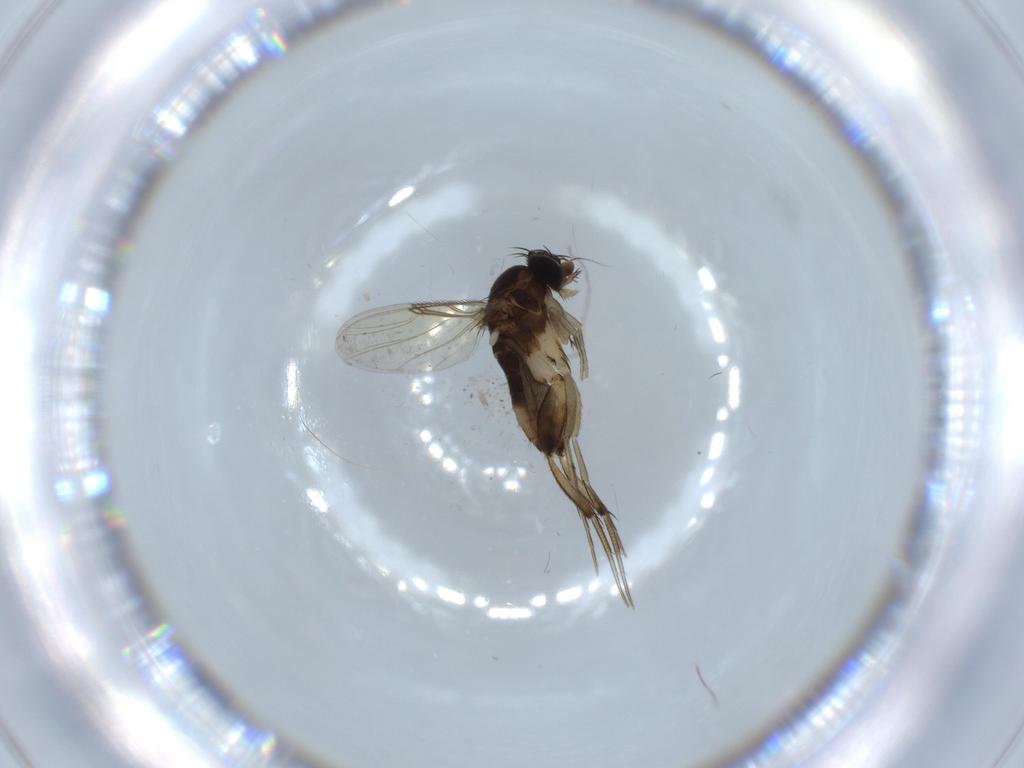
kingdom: Animalia
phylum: Arthropoda
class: Insecta
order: Diptera
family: Phoridae
